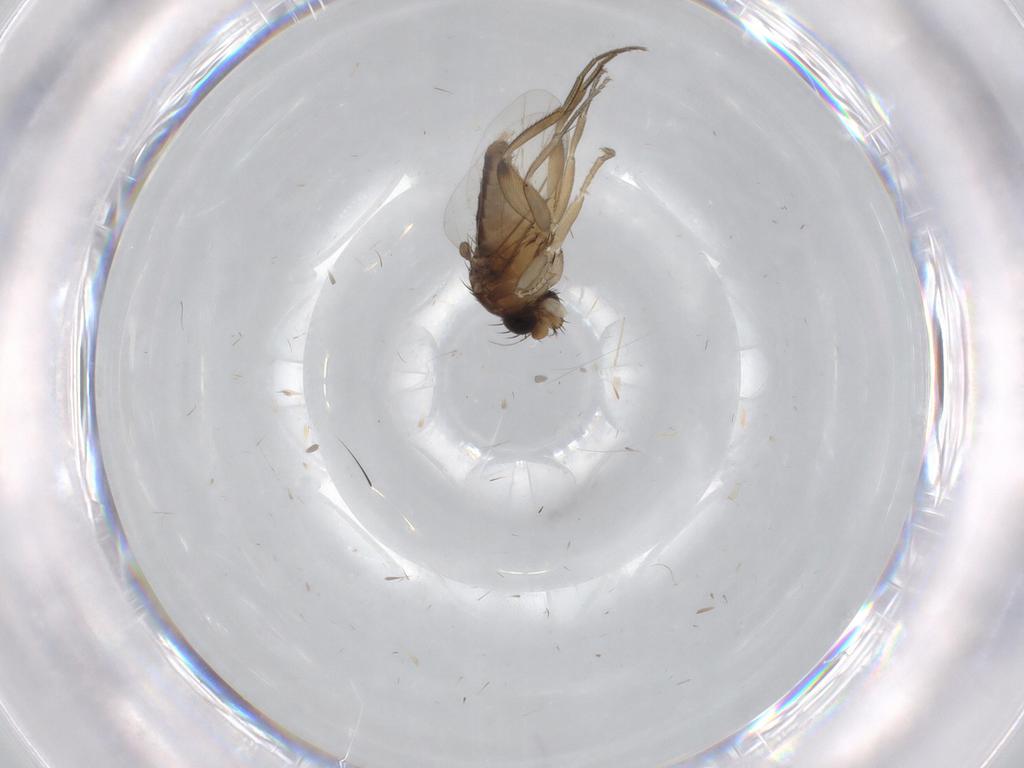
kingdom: Animalia
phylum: Arthropoda
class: Insecta
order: Diptera
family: Phoridae
